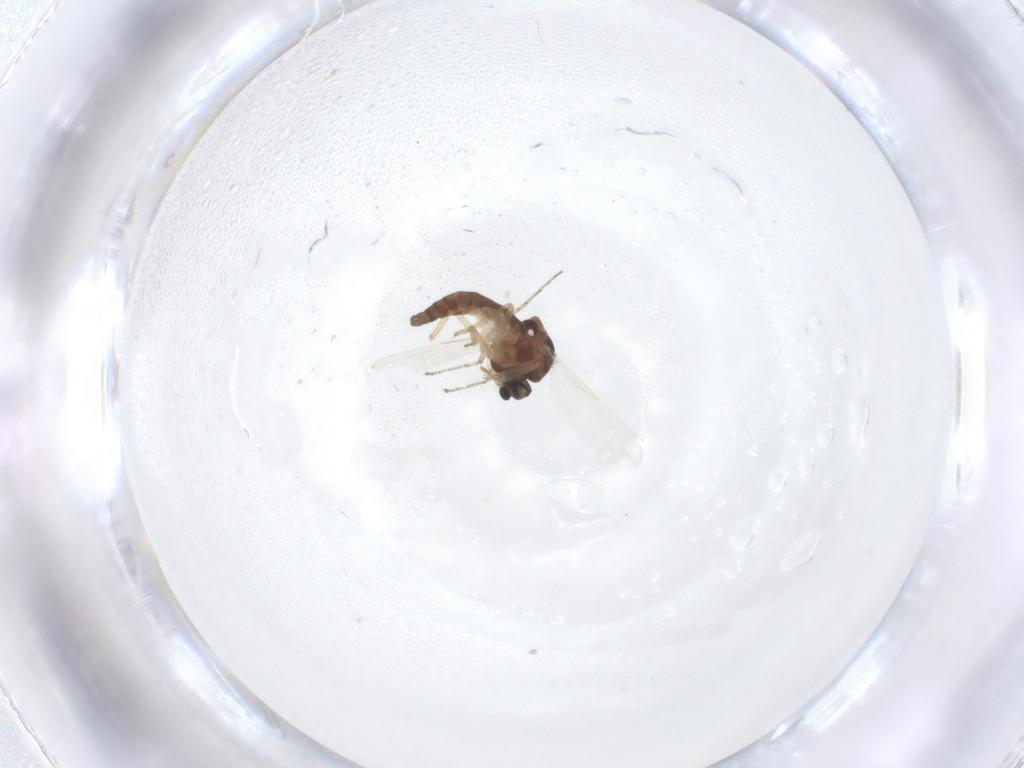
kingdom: Animalia
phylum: Arthropoda
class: Insecta
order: Diptera
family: Ceratopogonidae
